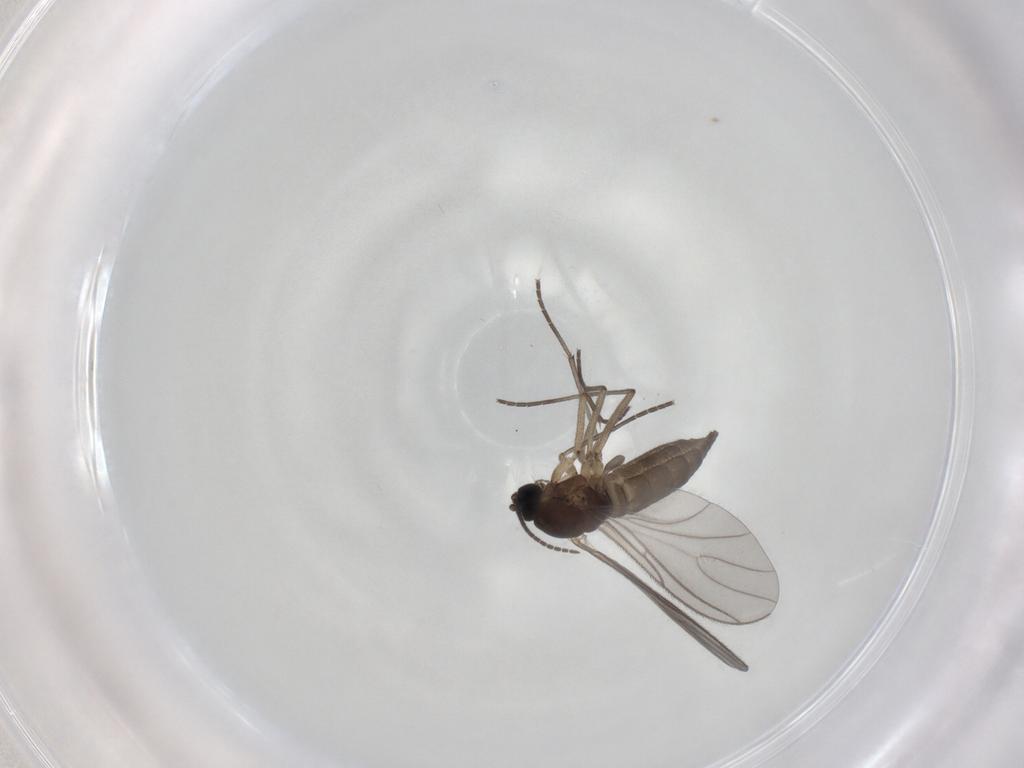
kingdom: Animalia
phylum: Arthropoda
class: Insecta
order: Diptera
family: Sciaridae
